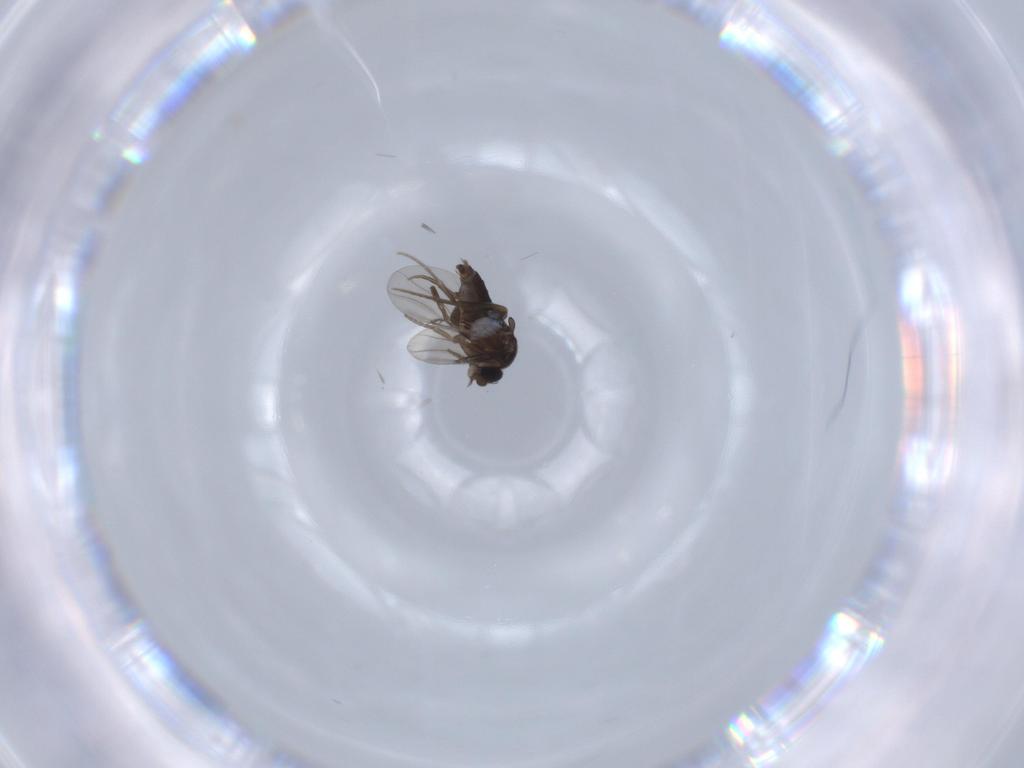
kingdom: Animalia
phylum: Arthropoda
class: Insecta
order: Diptera
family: Phoridae
